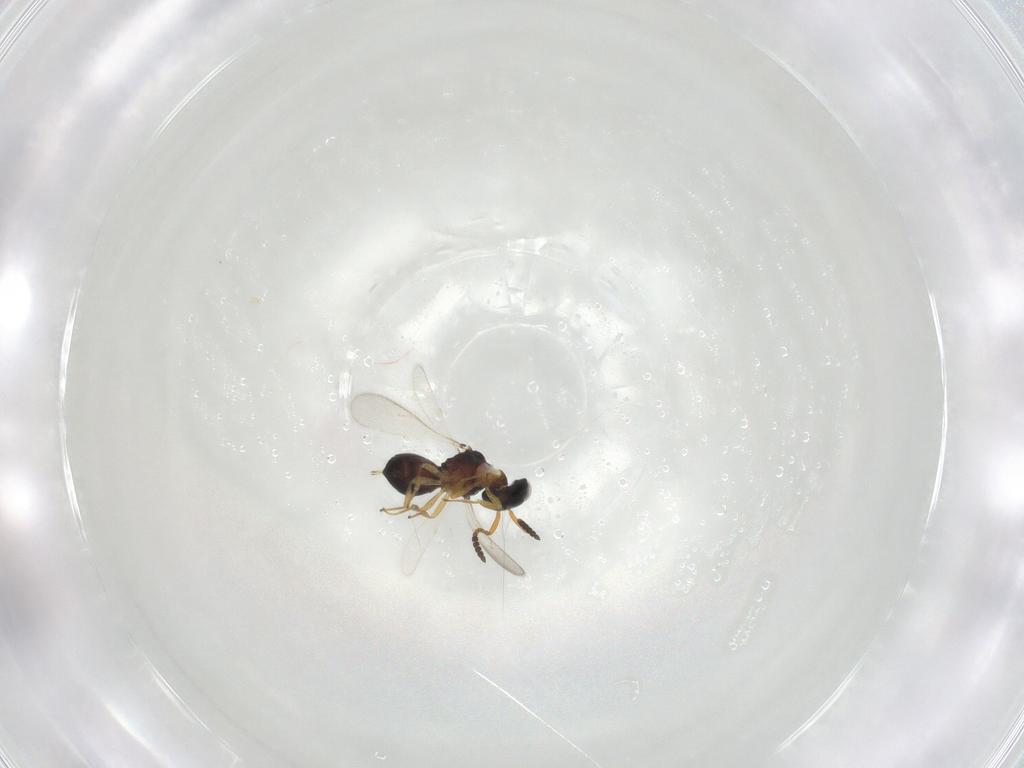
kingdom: Animalia
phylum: Arthropoda
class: Insecta
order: Hymenoptera
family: Scelionidae
